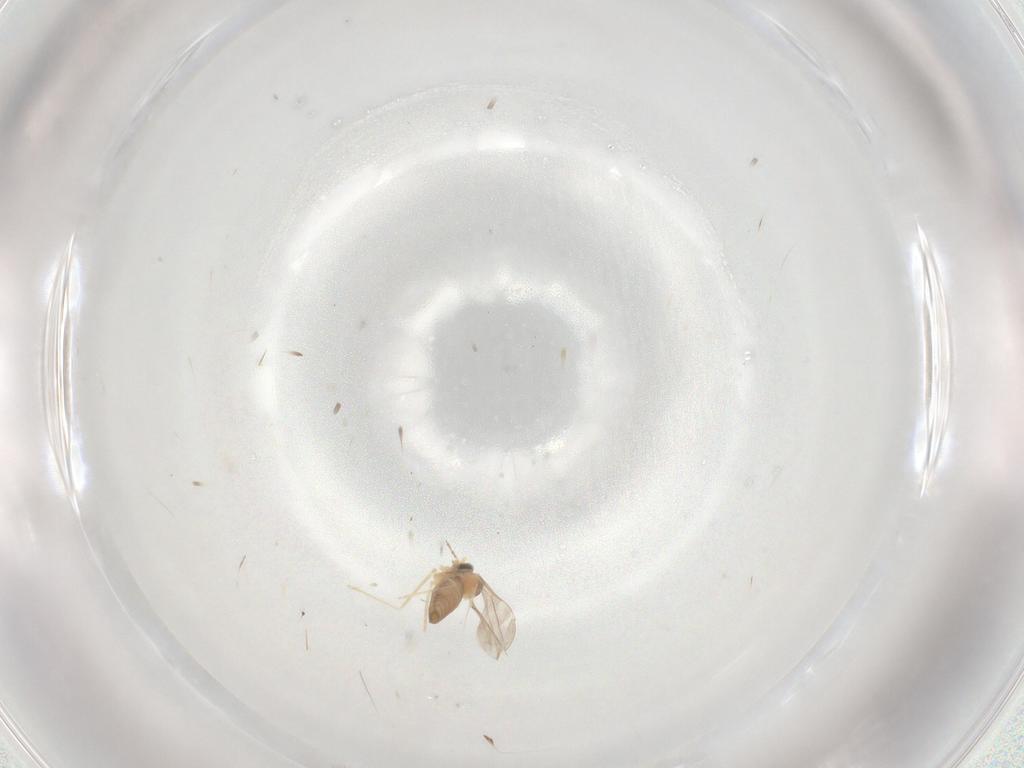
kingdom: Animalia
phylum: Arthropoda
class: Insecta
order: Diptera
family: Cecidomyiidae
